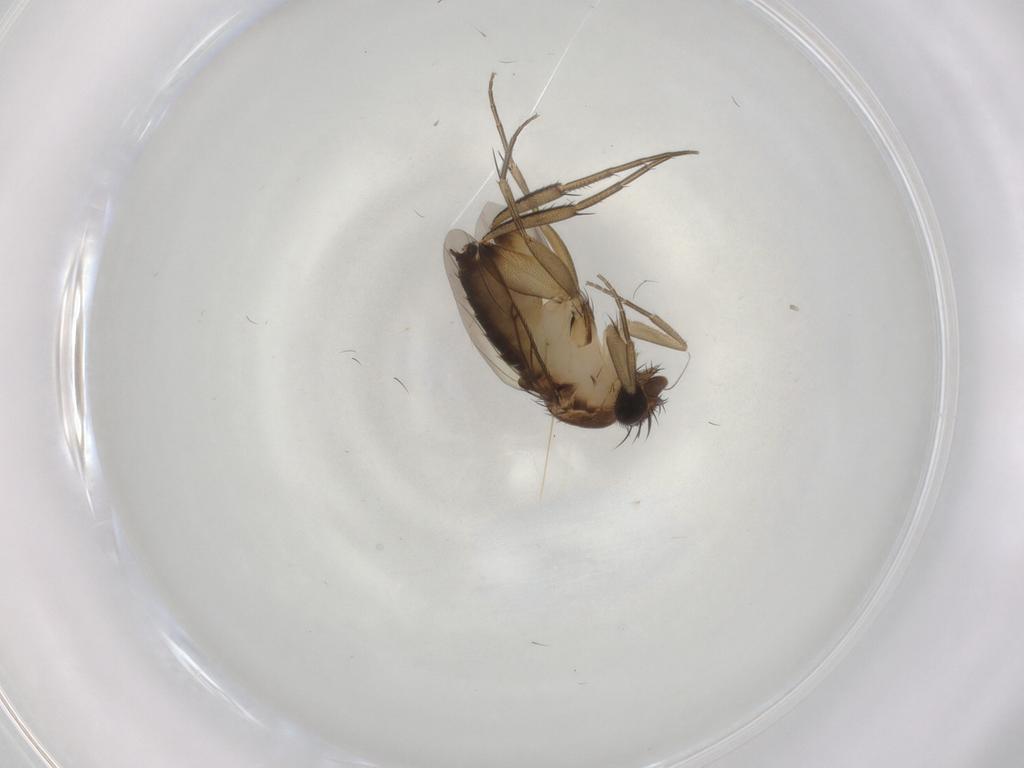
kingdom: Animalia
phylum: Arthropoda
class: Insecta
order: Diptera
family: Phoridae
